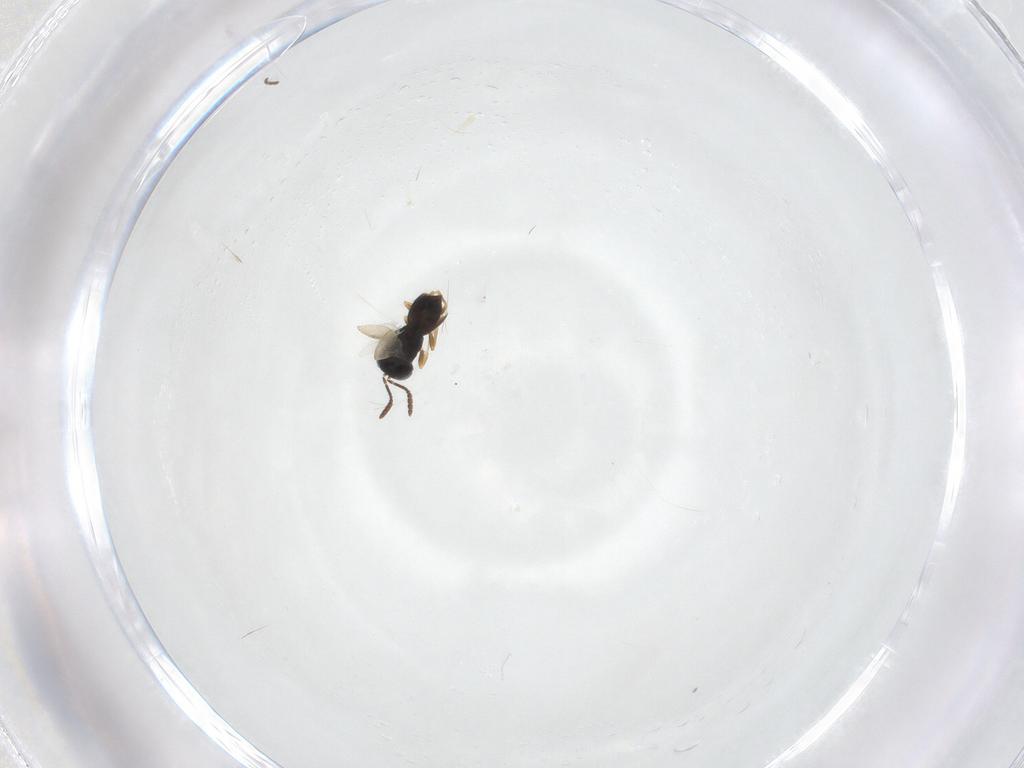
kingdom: Animalia
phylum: Arthropoda
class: Insecta
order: Hymenoptera
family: Scelionidae
